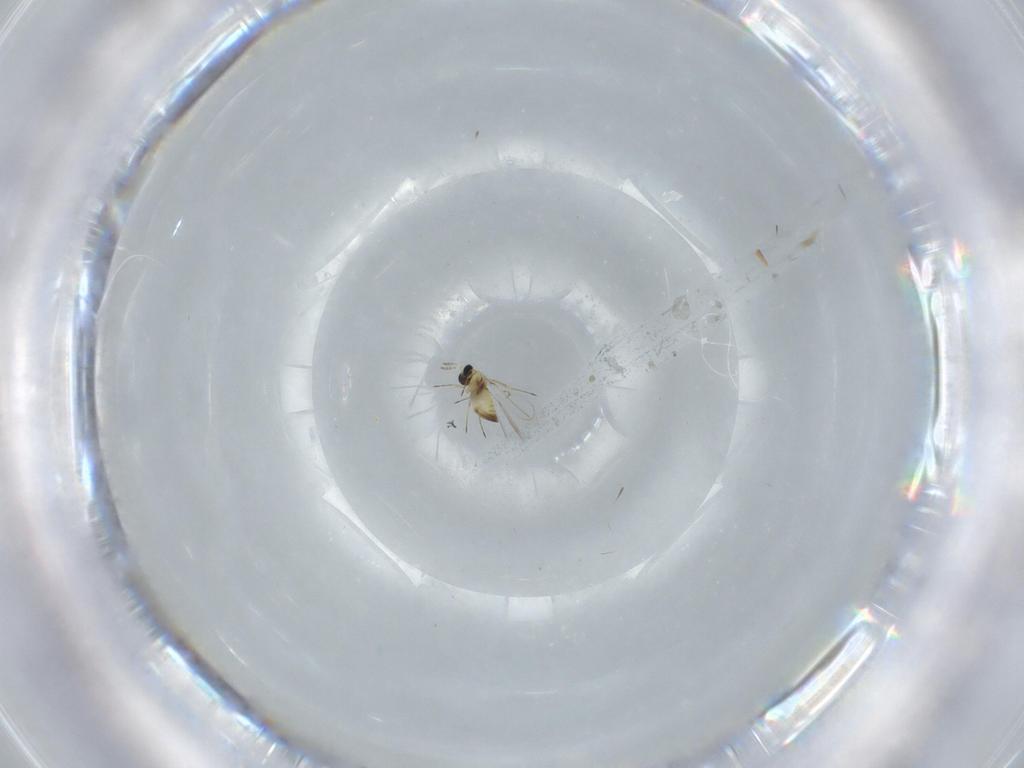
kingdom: Animalia
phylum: Arthropoda
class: Insecta
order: Hymenoptera
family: Trichogrammatidae
